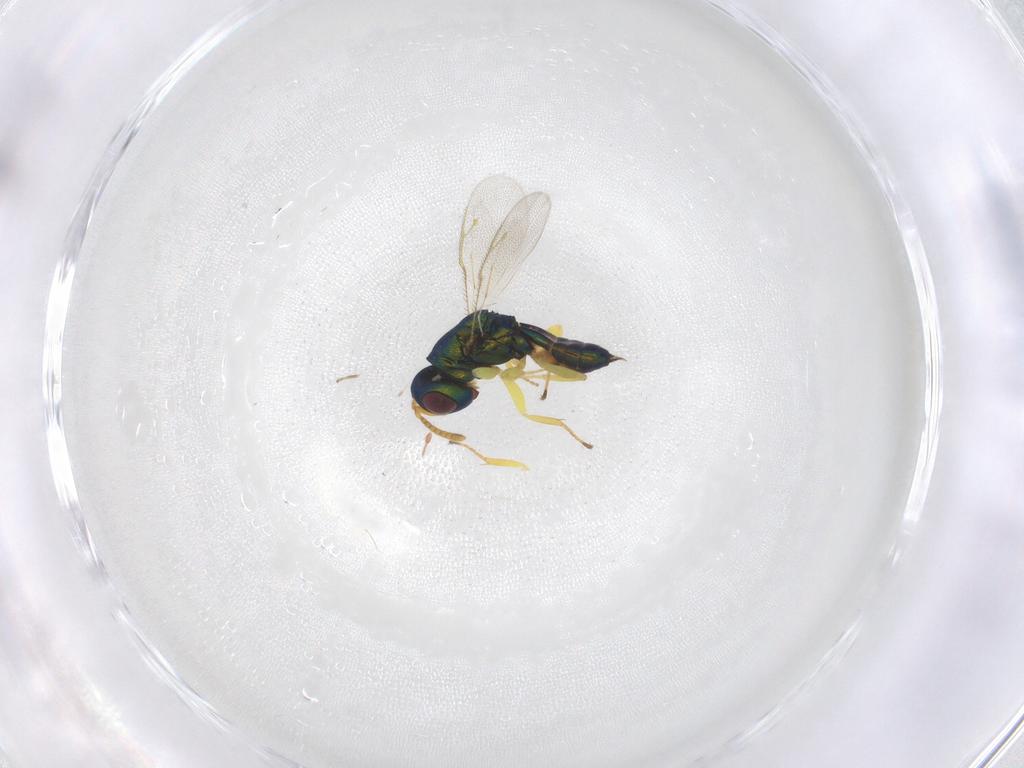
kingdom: Animalia
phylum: Arthropoda
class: Insecta
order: Hymenoptera
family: Pteromalidae
